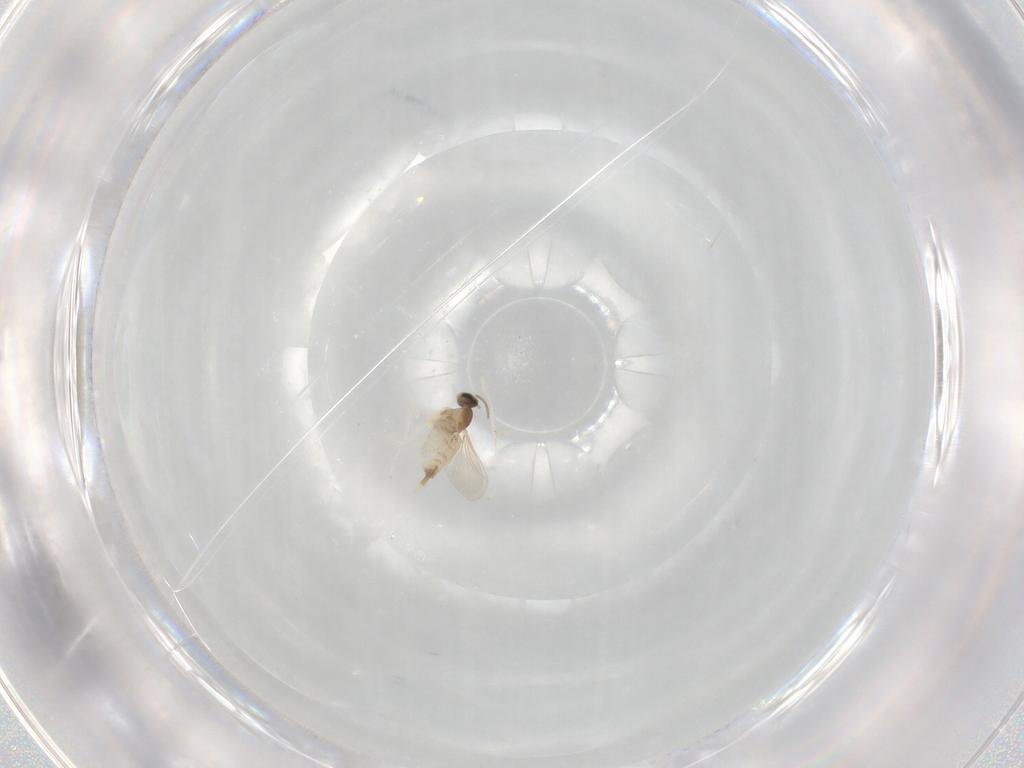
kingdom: Animalia
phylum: Arthropoda
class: Insecta
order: Diptera
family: Cecidomyiidae
